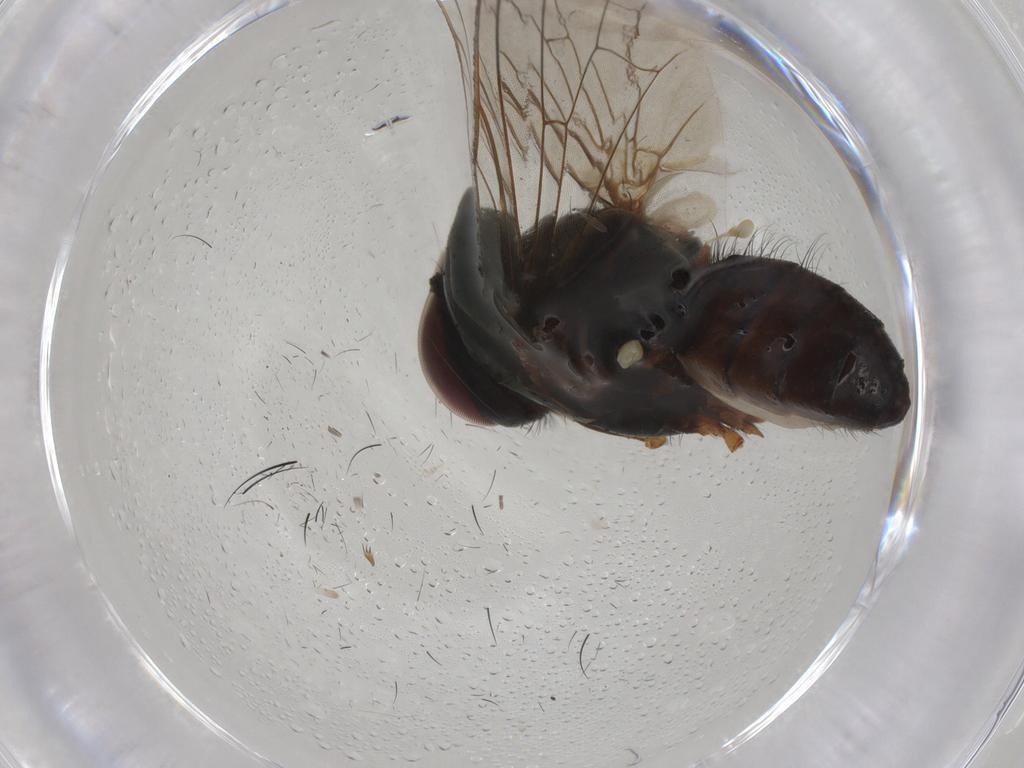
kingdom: Animalia
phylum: Arthropoda
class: Insecta
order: Diptera
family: Anthomyiidae
